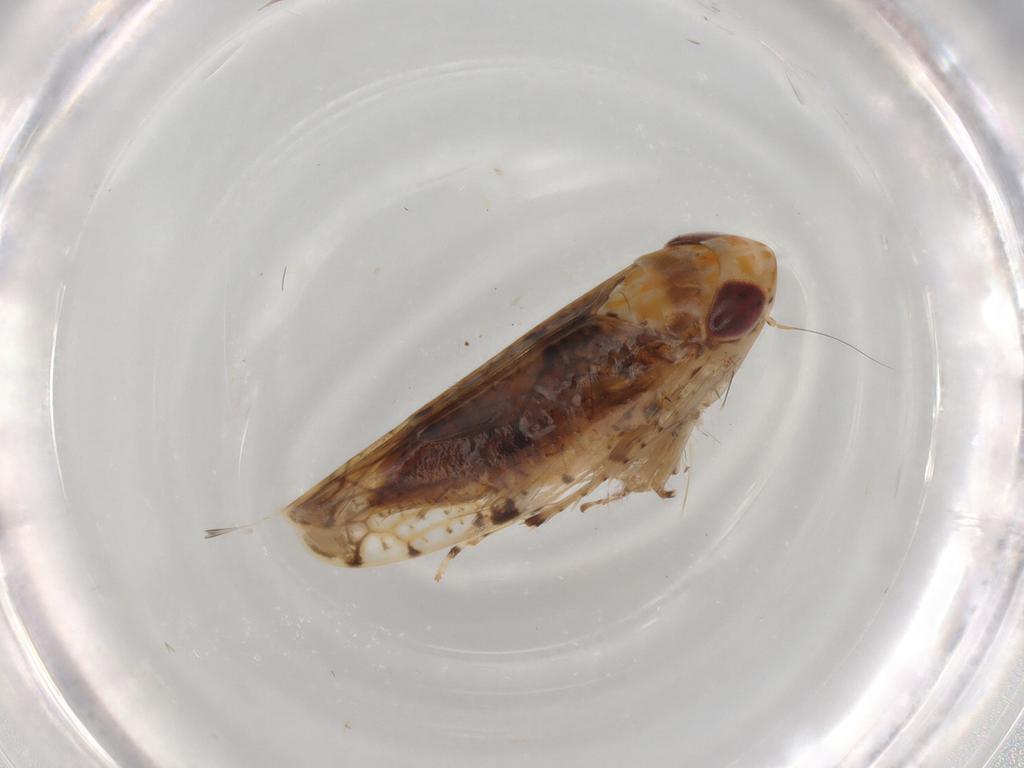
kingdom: Animalia
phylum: Arthropoda
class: Insecta
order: Hemiptera
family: Cicadellidae
